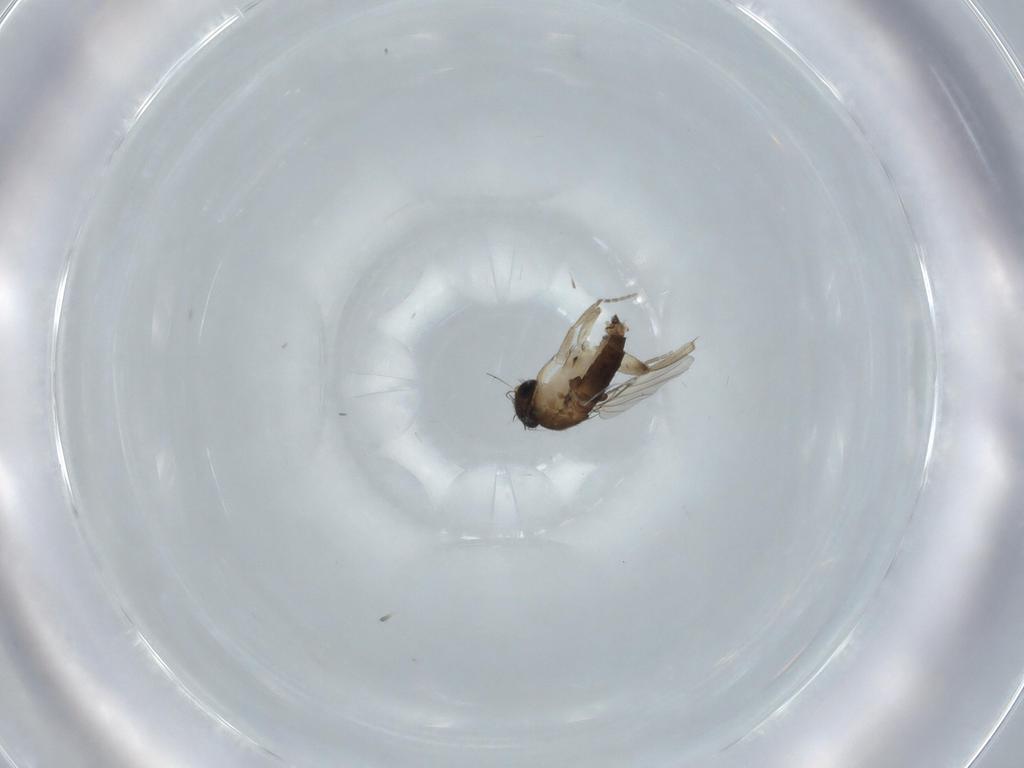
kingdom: Animalia
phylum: Arthropoda
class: Insecta
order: Diptera
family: Phoridae
